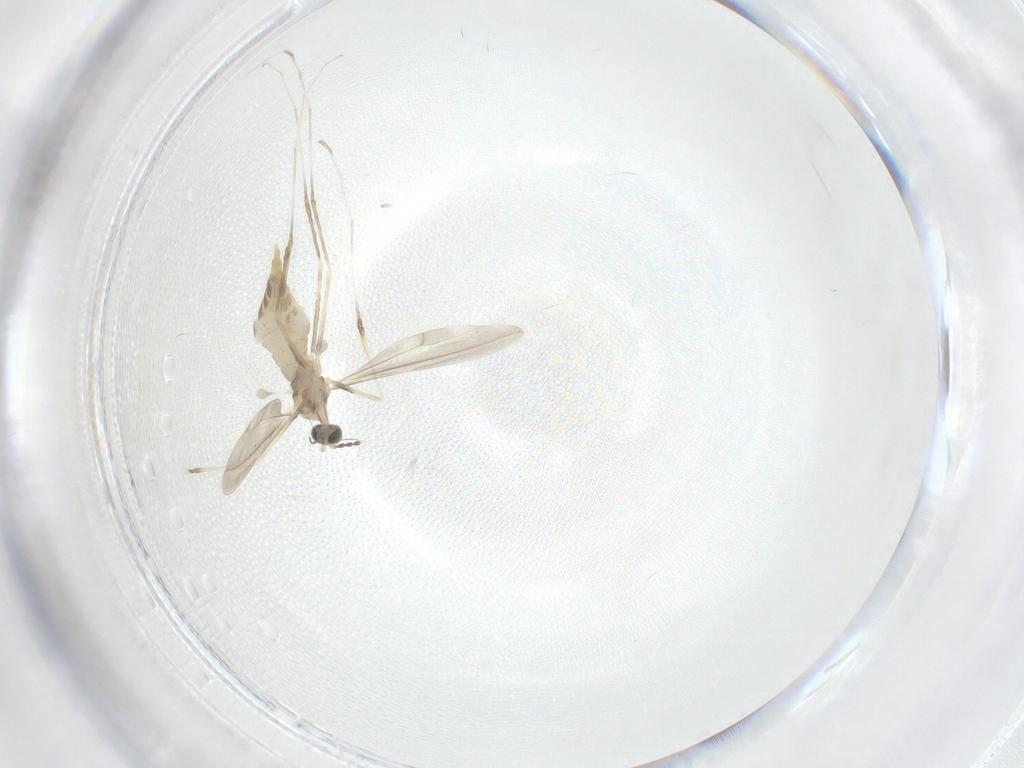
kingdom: Animalia
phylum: Arthropoda
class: Insecta
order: Diptera
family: Cecidomyiidae
